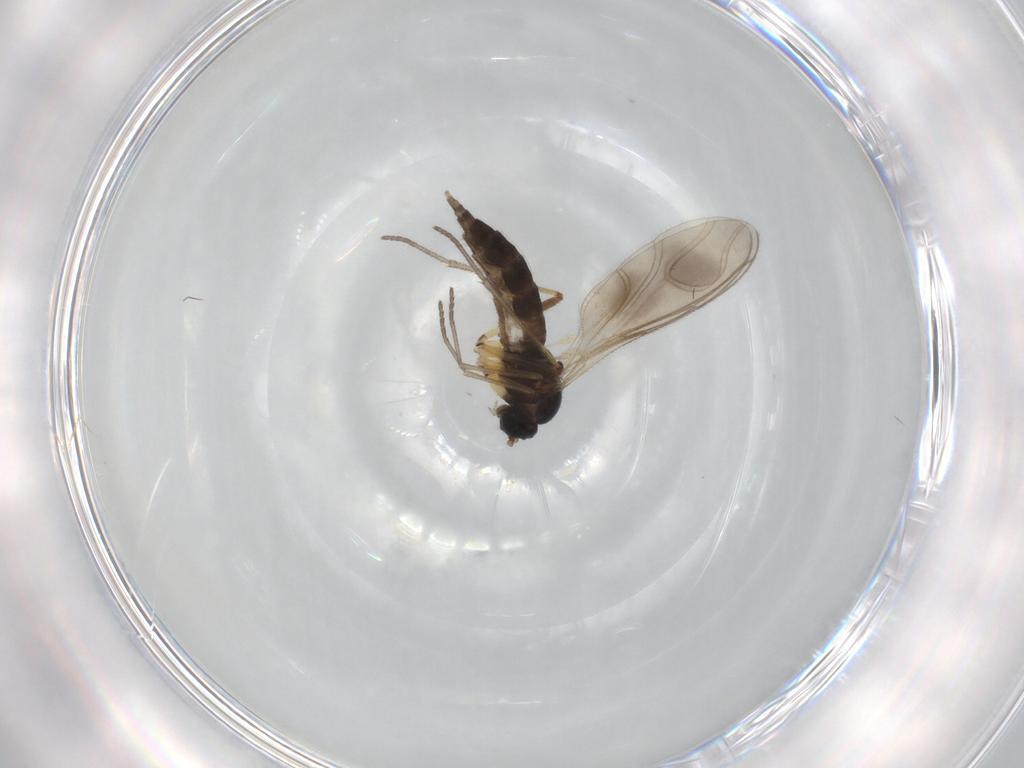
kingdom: Animalia
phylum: Arthropoda
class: Insecta
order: Diptera
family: Sciaridae
